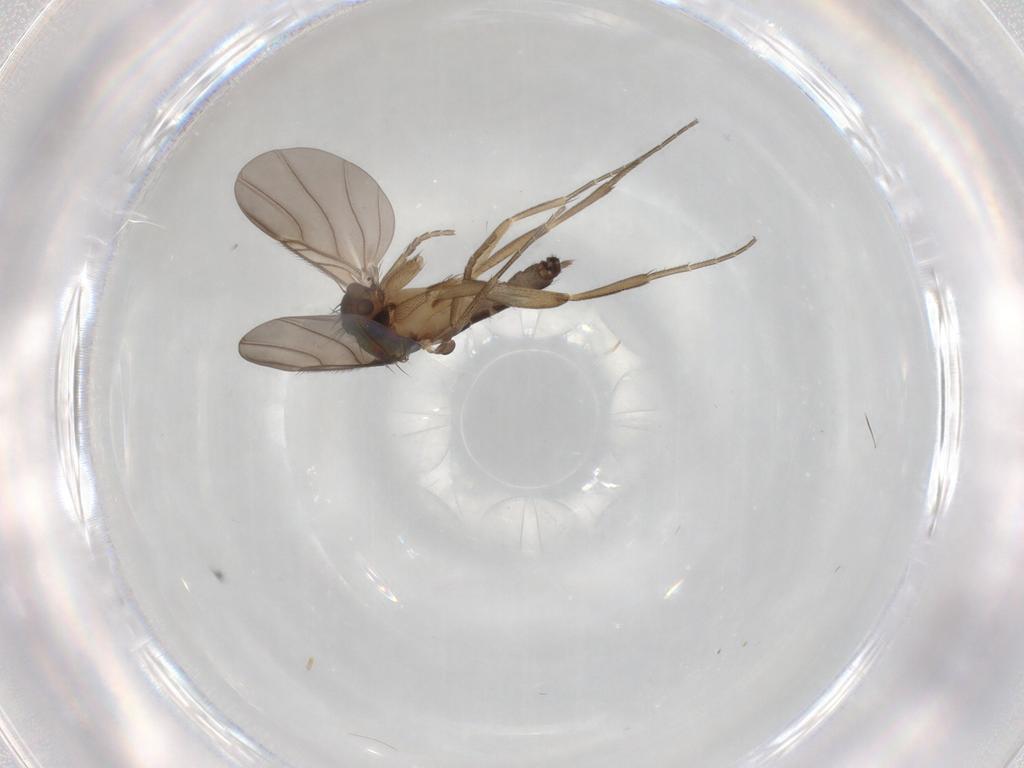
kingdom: Animalia
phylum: Arthropoda
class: Insecta
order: Diptera
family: Phoridae
